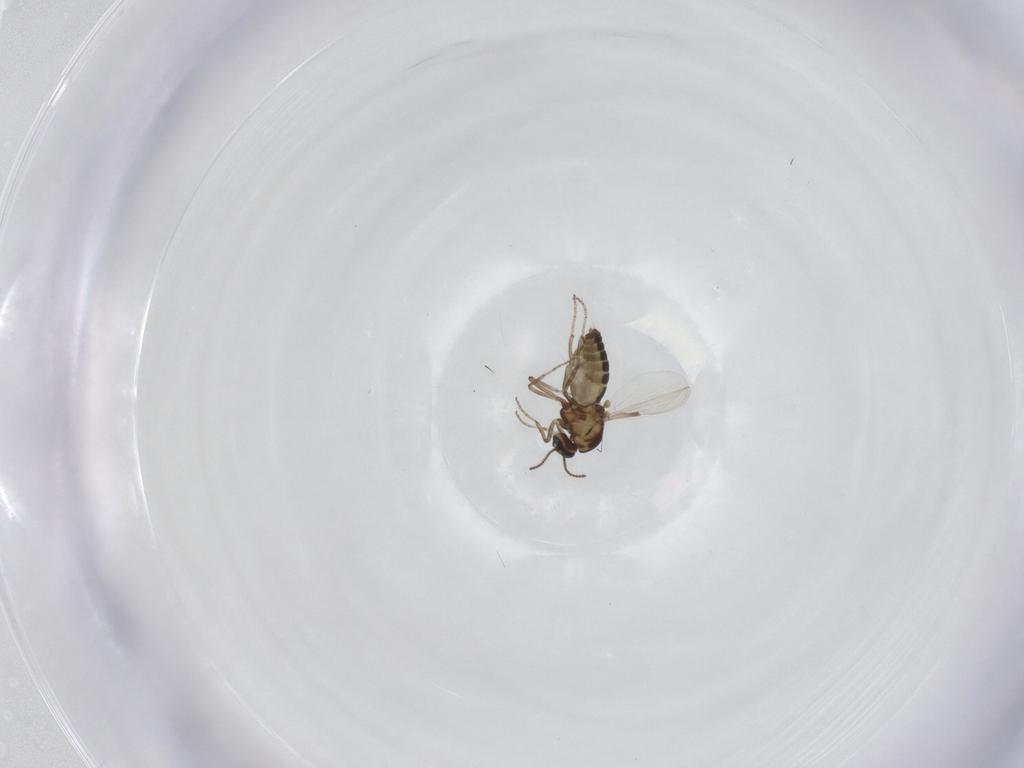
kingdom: Animalia
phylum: Arthropoda
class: Insecta
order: Diptera
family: Ceratopogonidae
